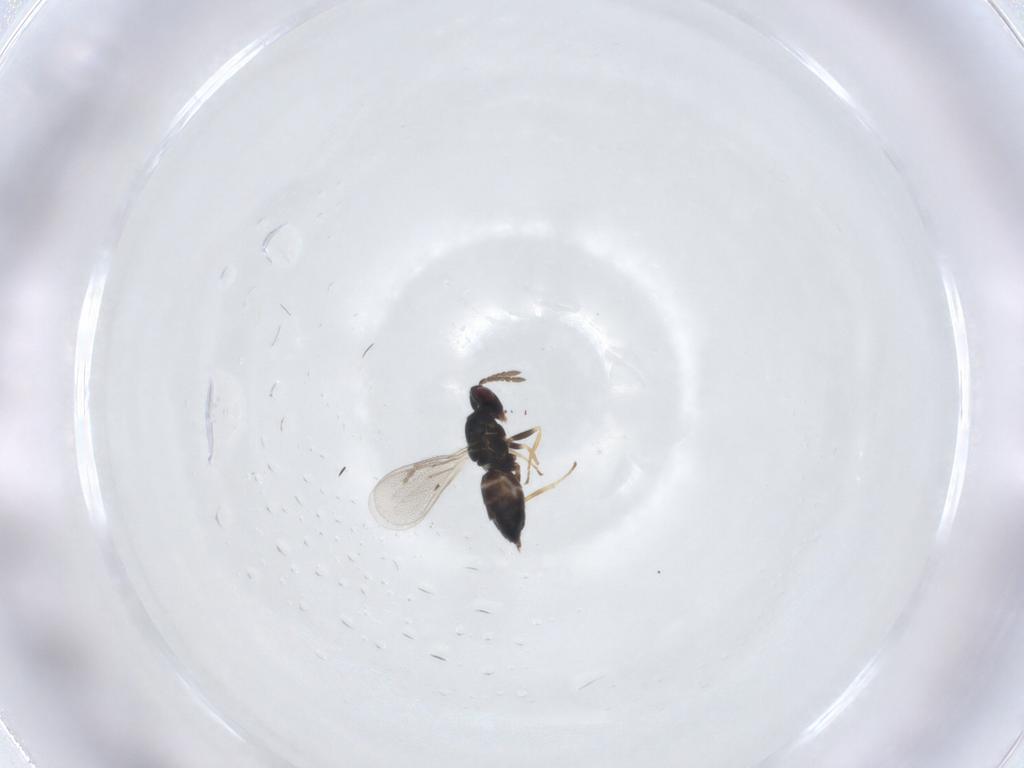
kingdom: Animalia
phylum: Arthropoda
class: Insecta
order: Hymenoptera
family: Eulophidae
